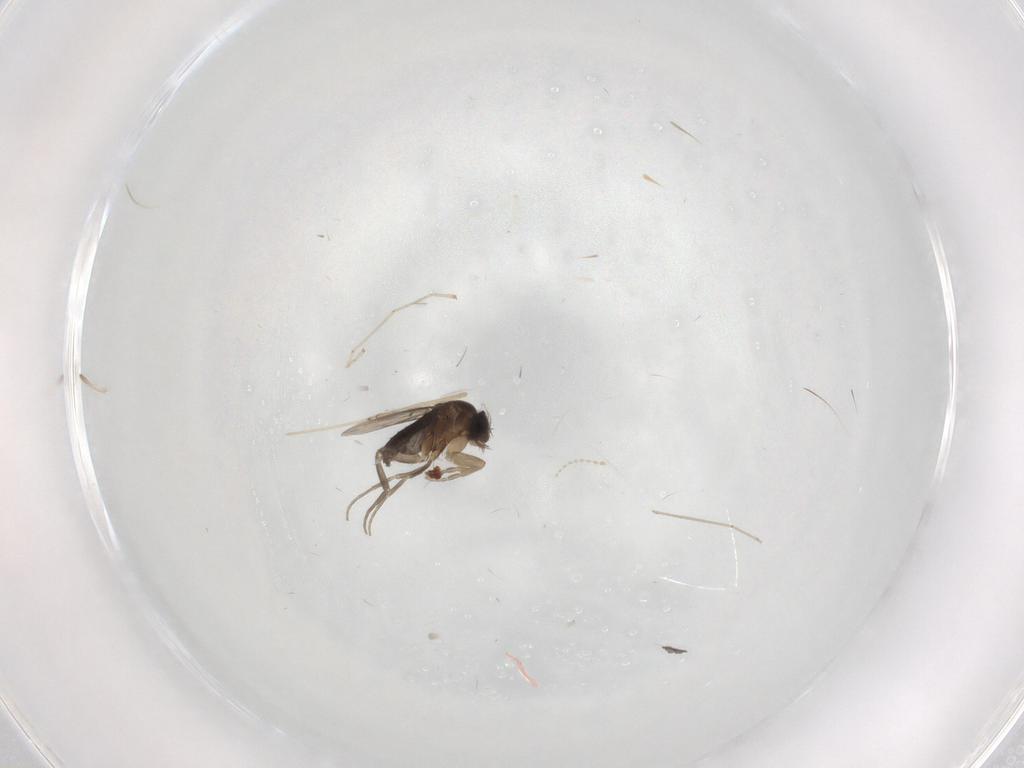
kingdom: Animalia
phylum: Arthropoda
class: Insecta
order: Diptera
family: Phoridae
